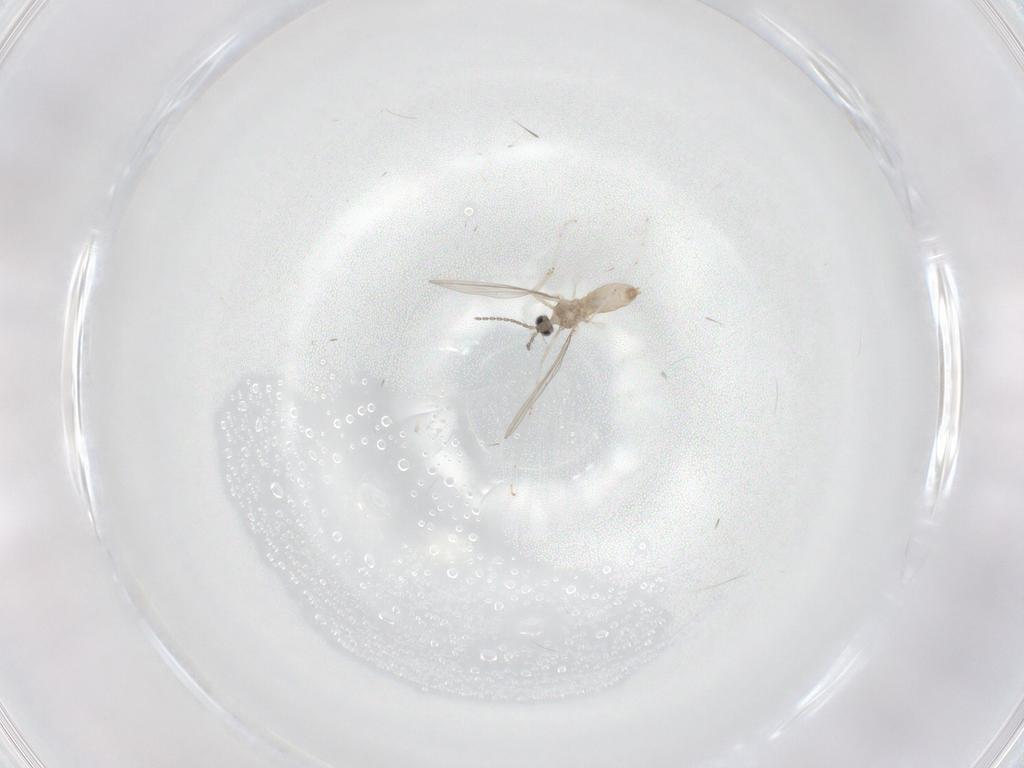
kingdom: Animalia
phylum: Arthropoda
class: Insecta
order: Diptera
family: Cecidomyiidae
